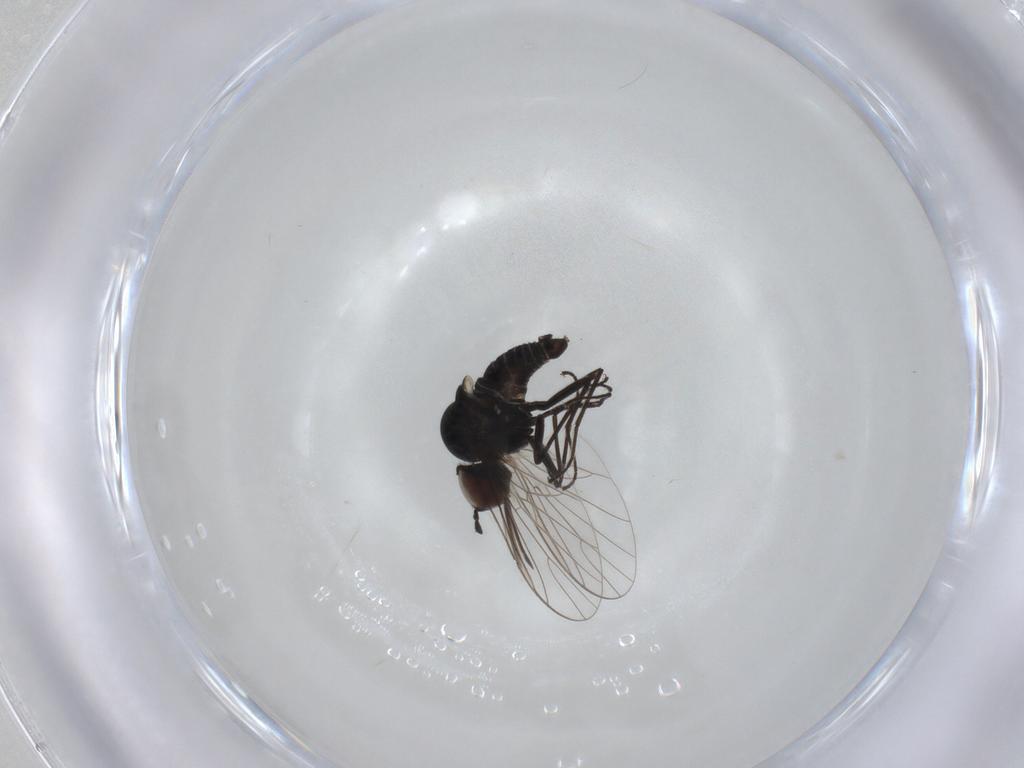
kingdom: Animalia
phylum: Arthropoda
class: Insecta
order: Diptera
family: Bombyliidae
